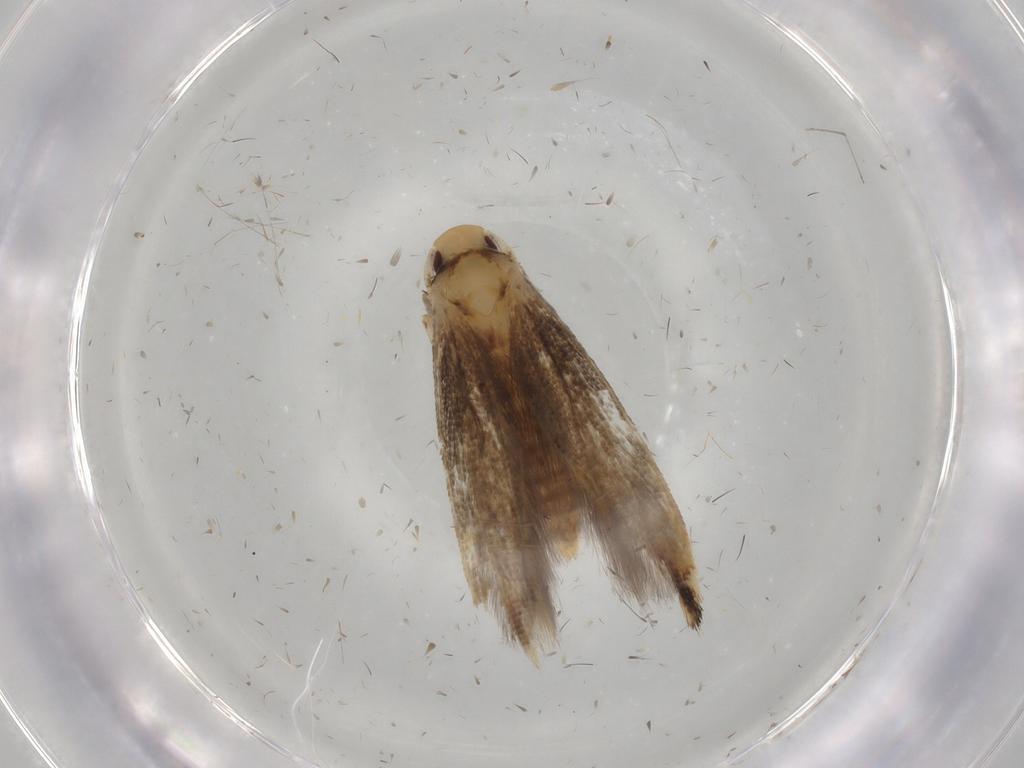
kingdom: Animalia
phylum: Arthropoda
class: Insecta
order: Lepidoptera
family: Momphidae
